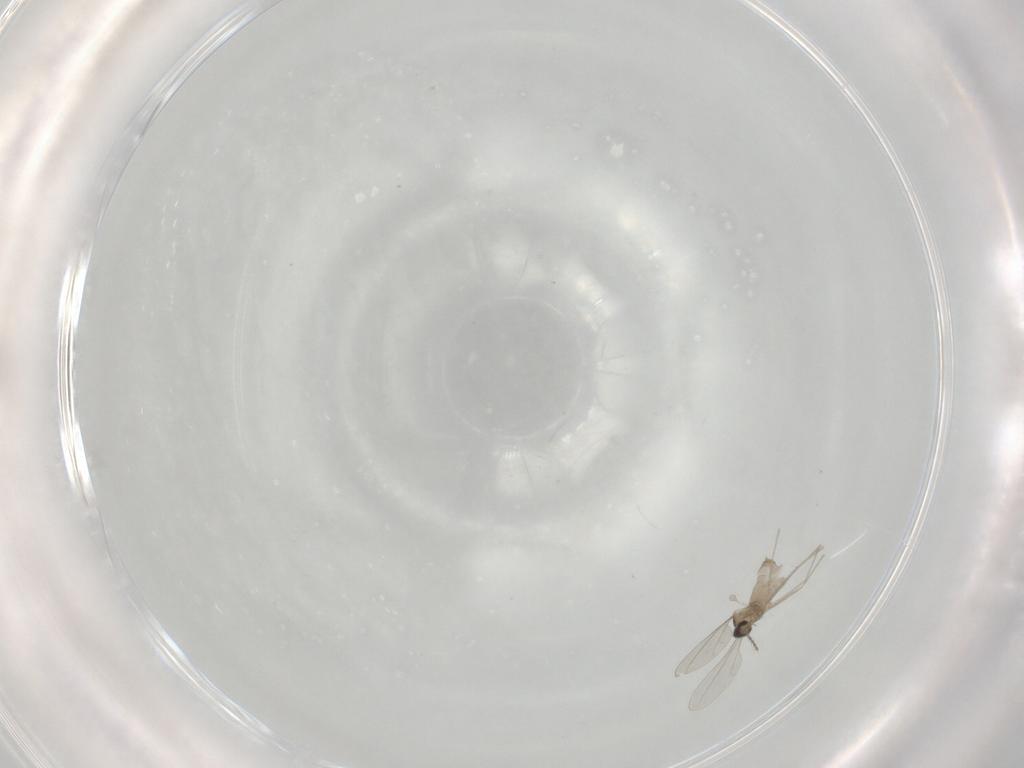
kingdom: Animalia
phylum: Arthropoda
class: Insecta
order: Diptera
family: Cecidomyiidae
